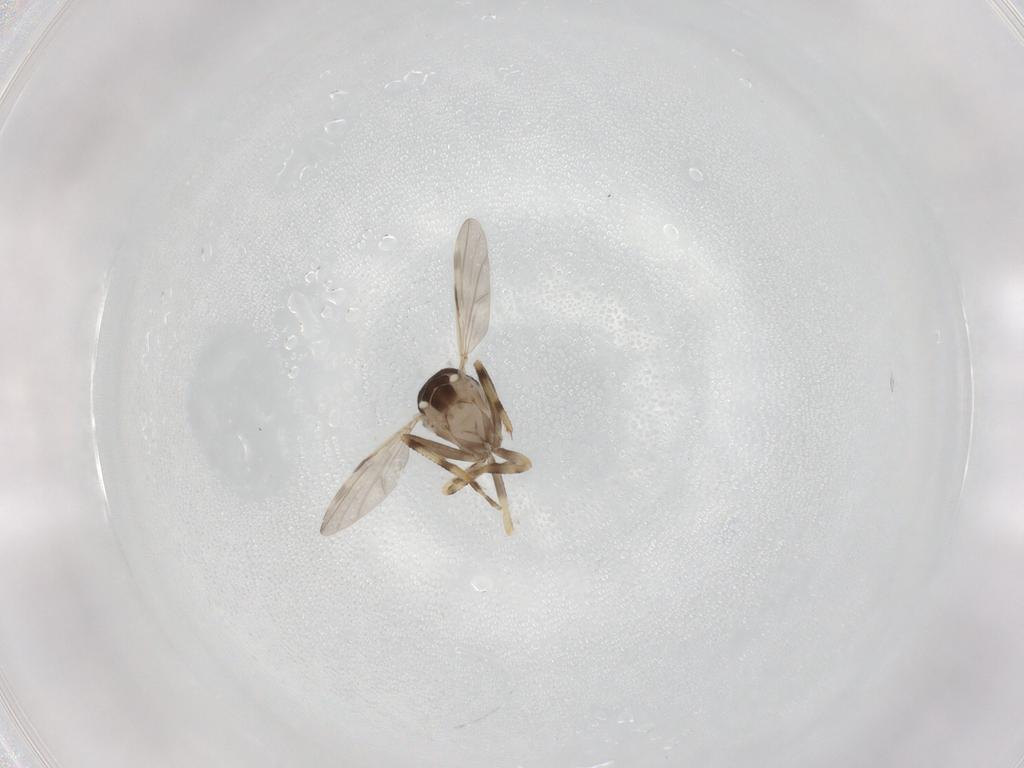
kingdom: Animalia
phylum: Arthropoda
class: Insecta
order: Diptera
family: Ceratopogonidae
